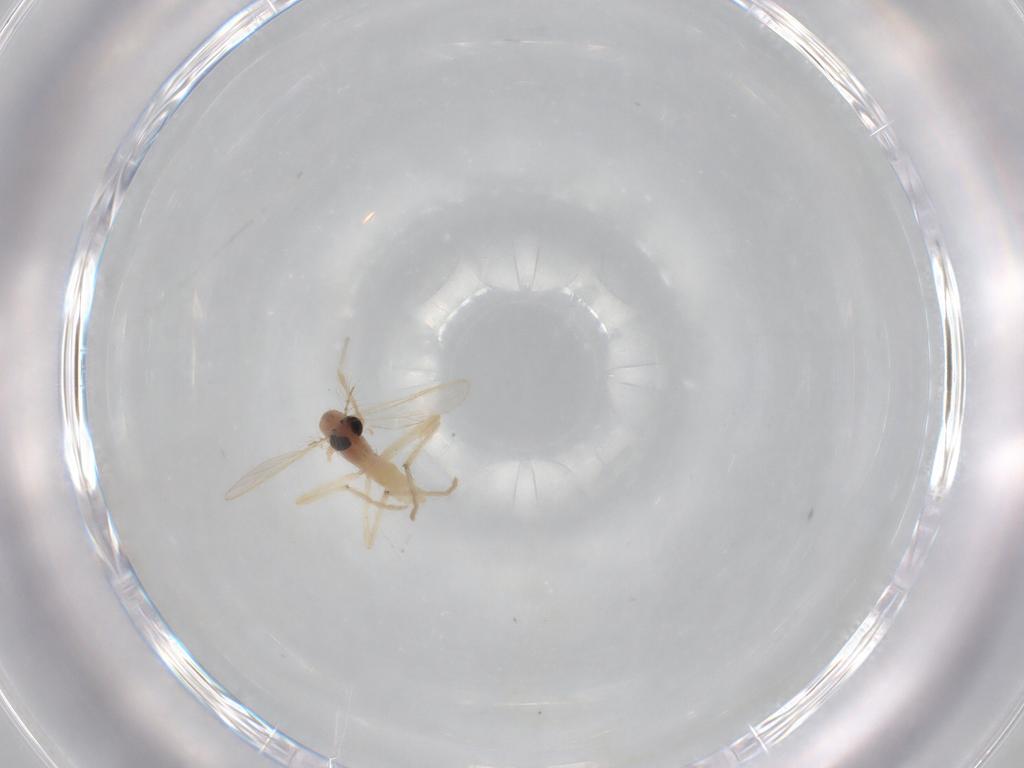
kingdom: Animalia
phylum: Arthropoda
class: Insecta
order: Diptera
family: Chironomidae
